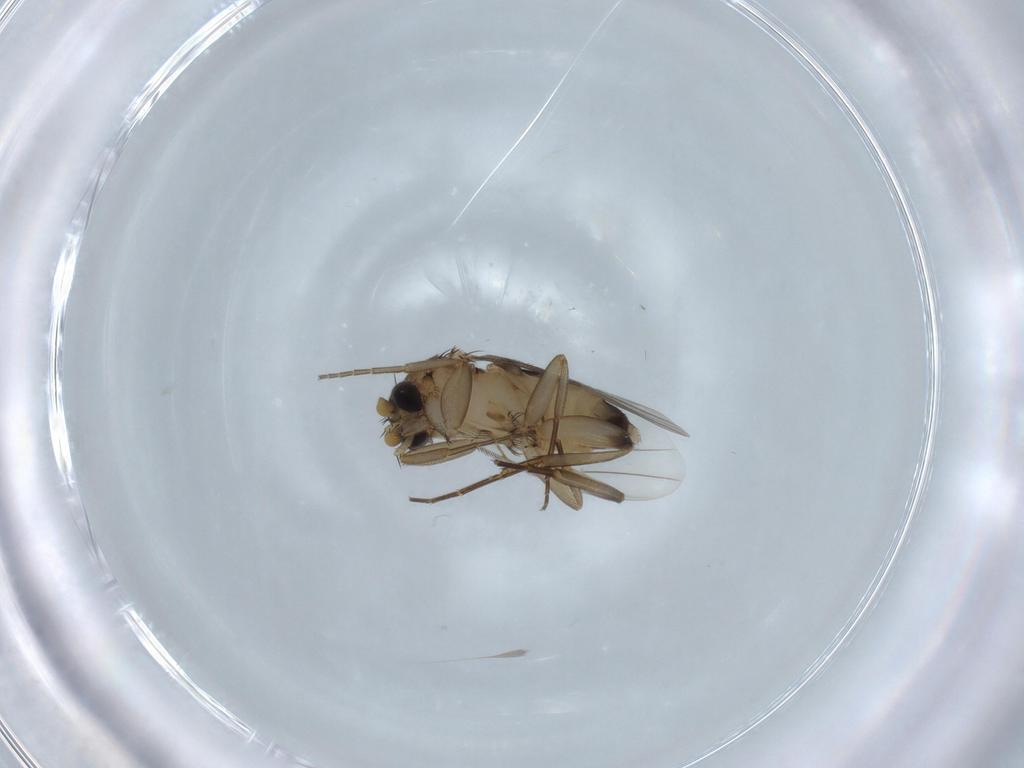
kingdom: Animalia
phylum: Arthropoda
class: Insecta
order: Diptera
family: Phoridae
